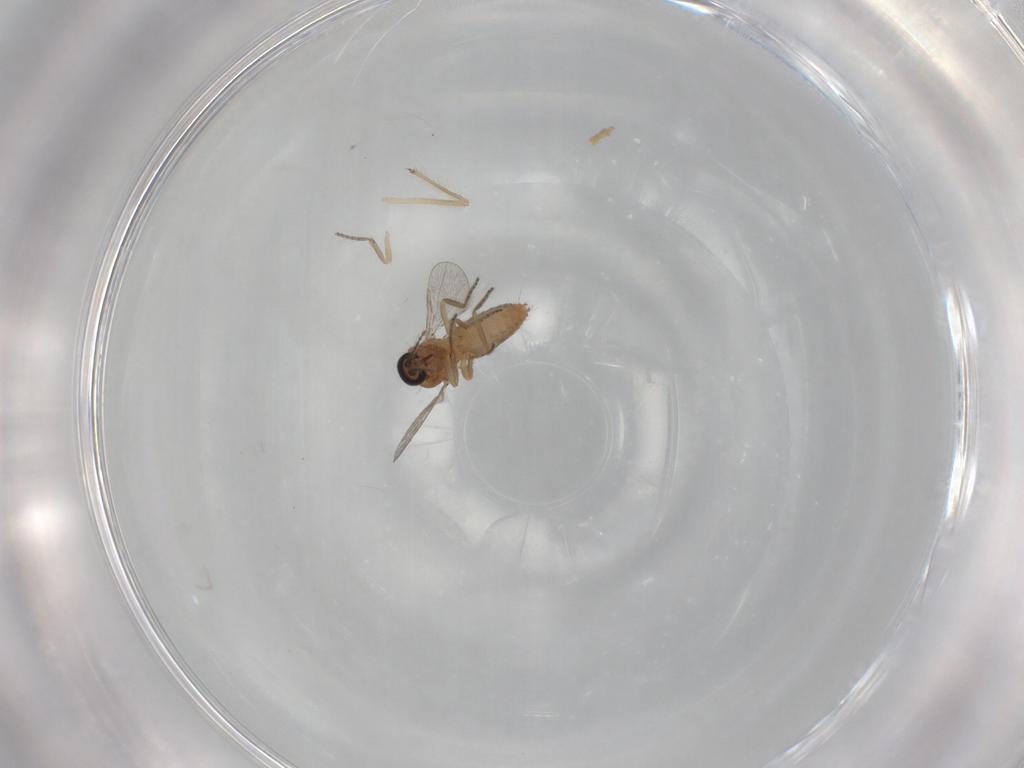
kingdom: Animalia
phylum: Arthropoda
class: Insecta
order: Diptera
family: Ceratopogonidae
